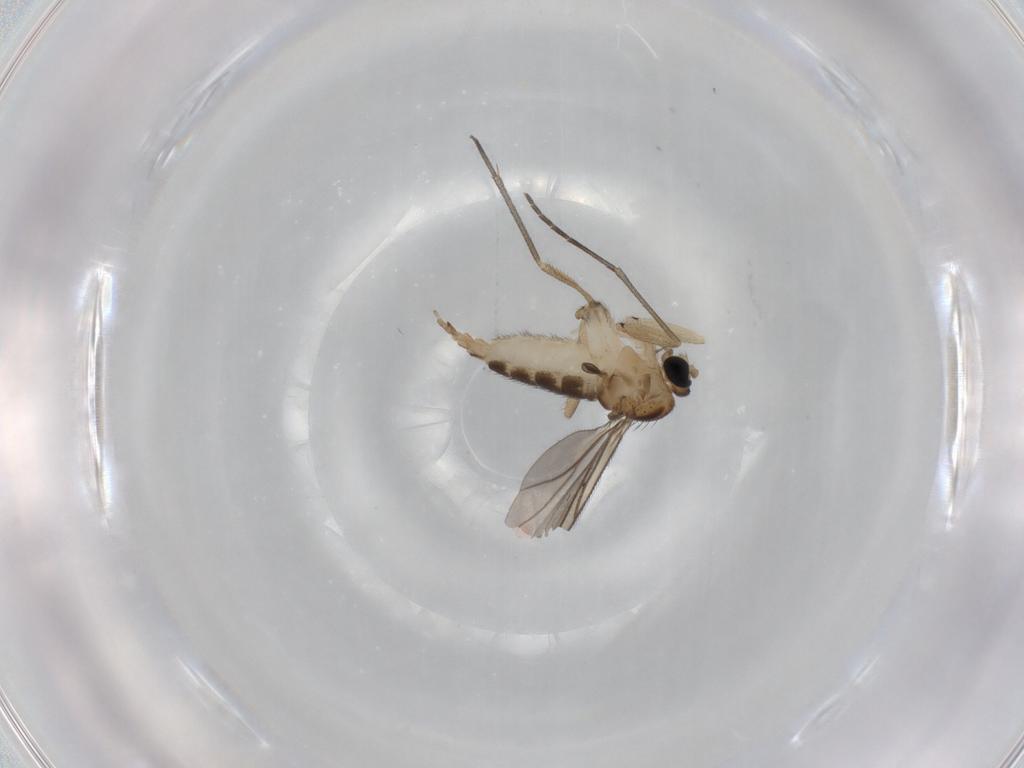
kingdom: Animalia
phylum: Arthropoda
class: Insecta
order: Diptera
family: Sciaridae
